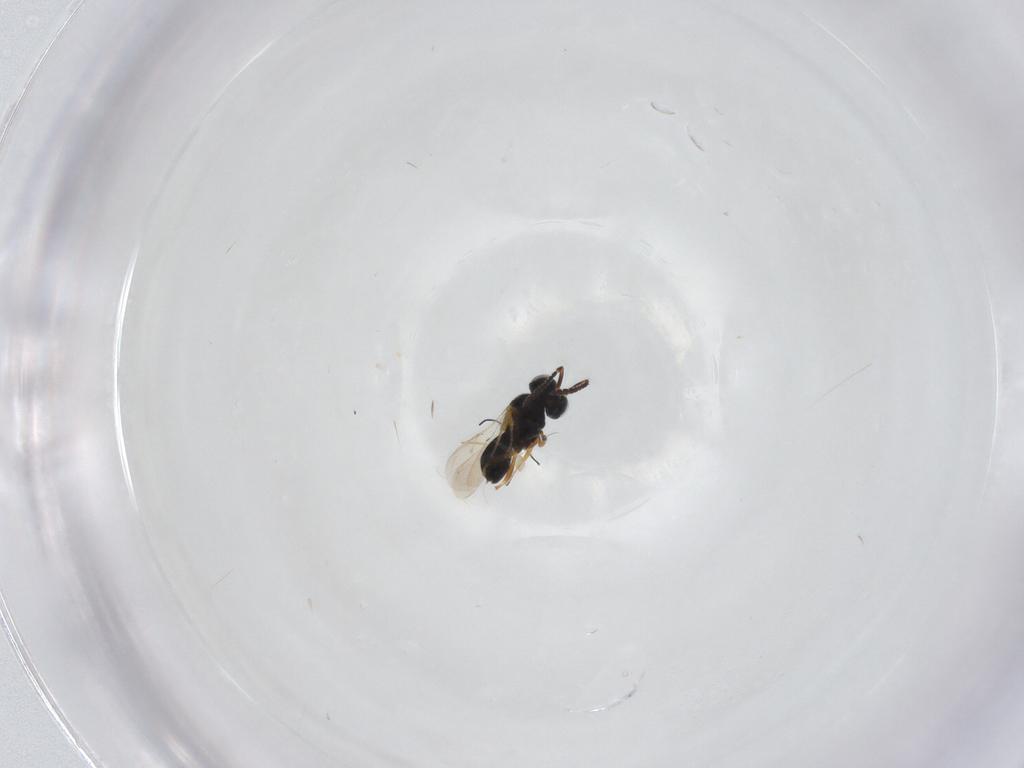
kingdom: Animalia
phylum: Arthropoda
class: Insecta
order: Hymenoptera
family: Scelionidae
